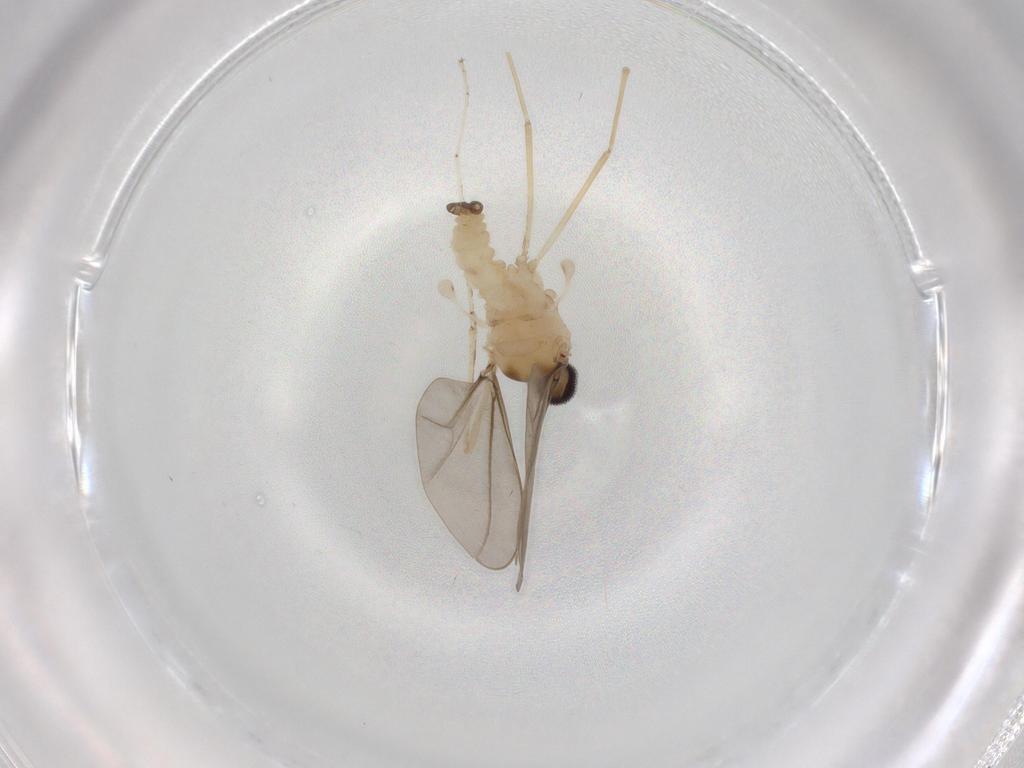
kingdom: Animalia
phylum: Arthropoda
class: Insecta
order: Diptera
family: Cecidomyiidae
